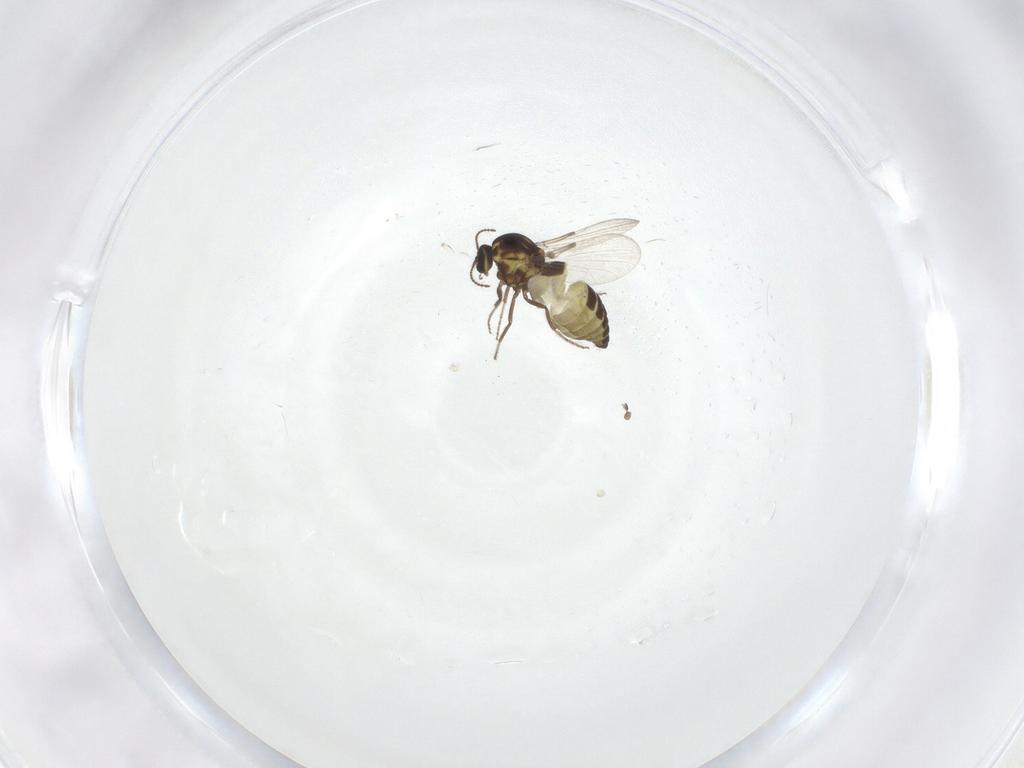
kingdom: Animalia
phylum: Arthropoda
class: Insecta
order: Diptera
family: Ceratopogonidae
